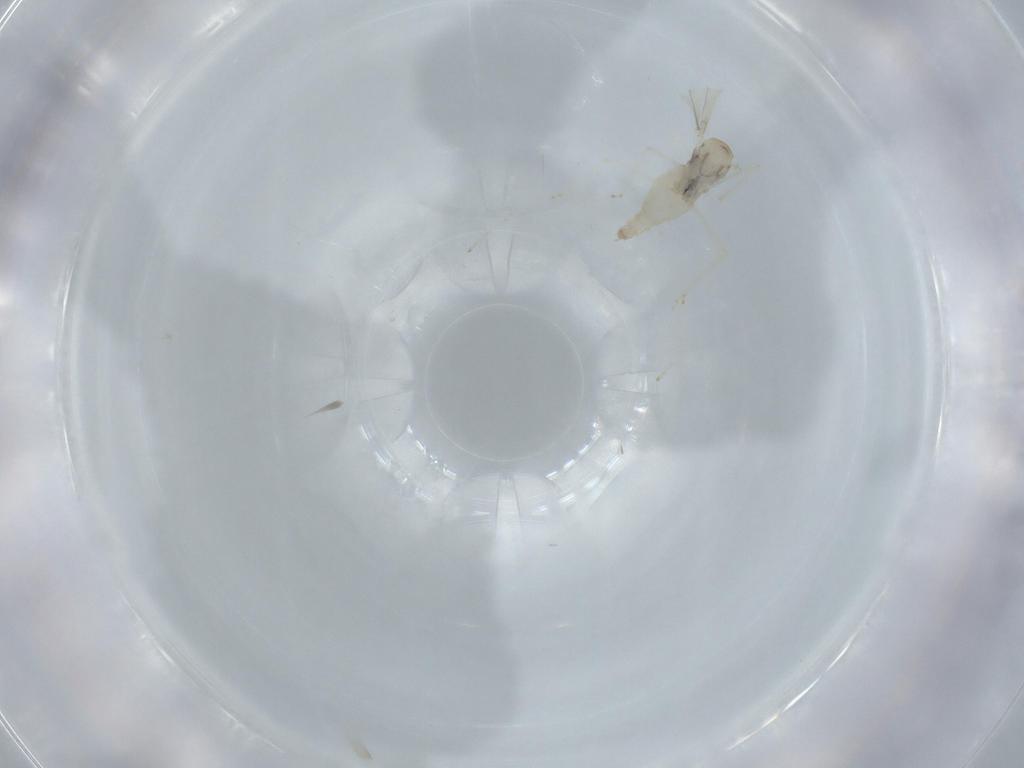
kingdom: Animalia
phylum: Arthropoda
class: Insecta
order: Diptera
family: Cecidomyiidae
